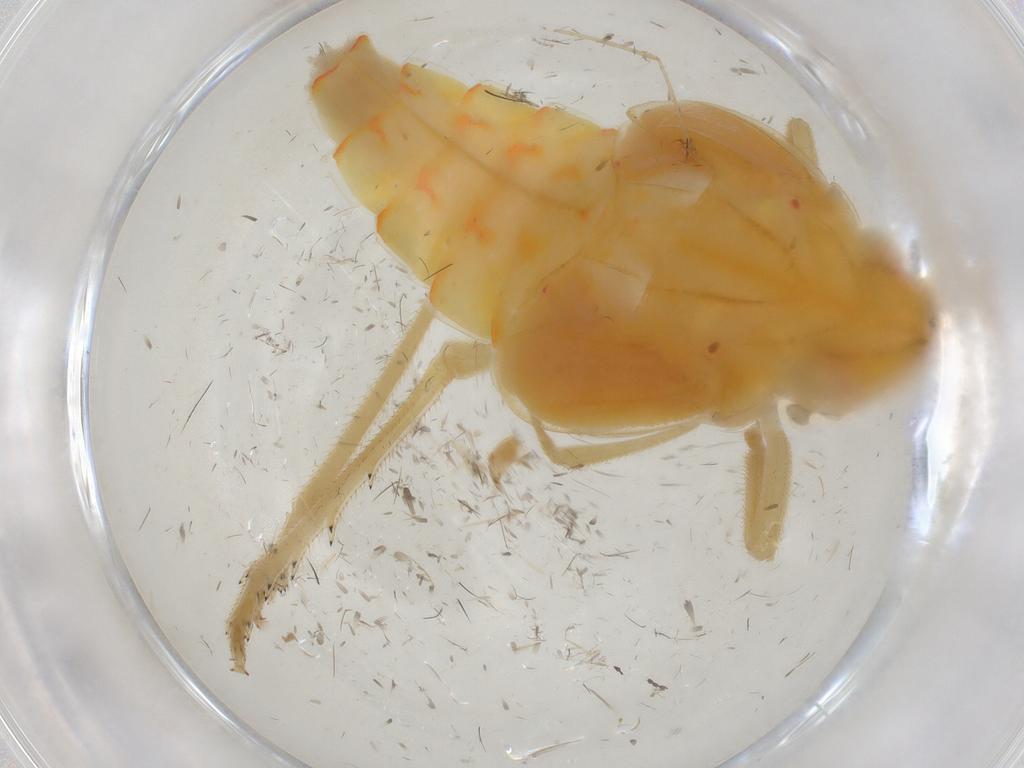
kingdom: Animalia
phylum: Arthropoda
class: Insecta
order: Hemiptera
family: Tropiduchidae
